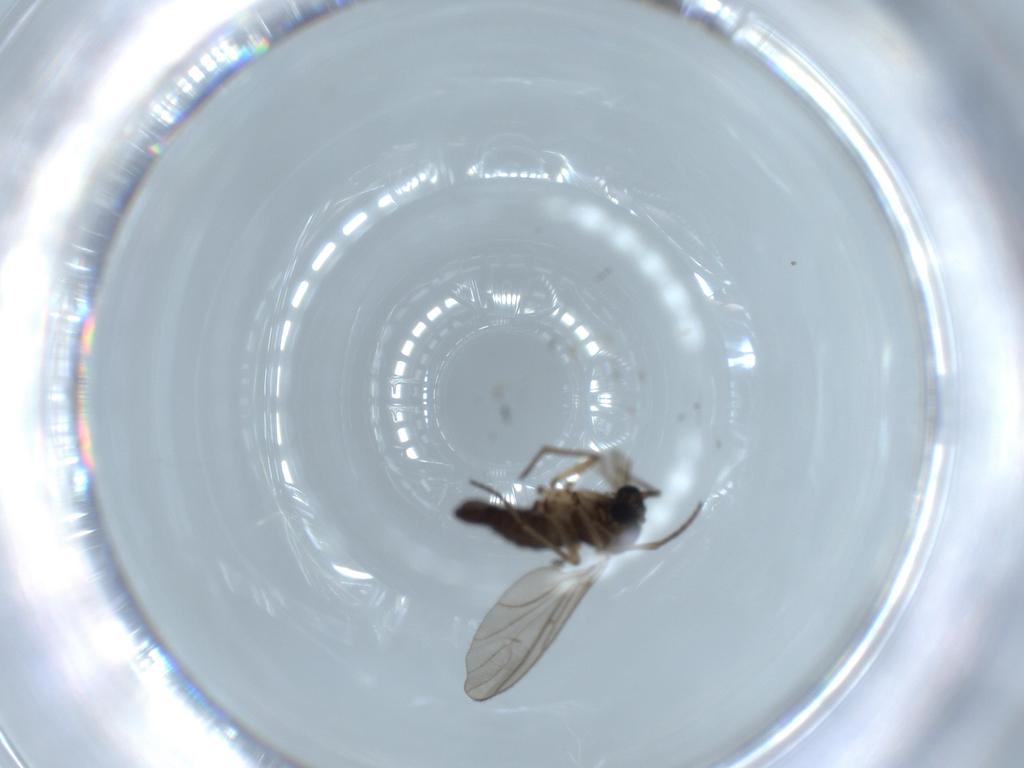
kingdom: Animalia
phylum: Arthropoda
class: Insecta
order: Diptera
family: Sciaridae
